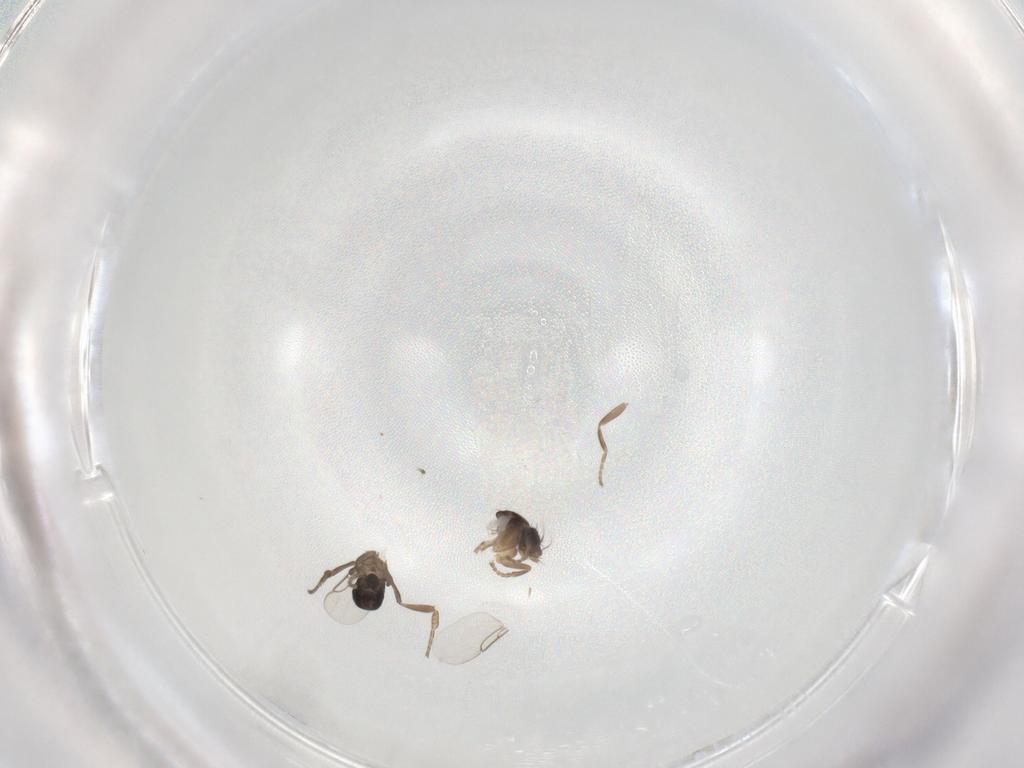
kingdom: Animalia
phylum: Arthropoda
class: Insecta
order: Diptera
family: Phoridae
